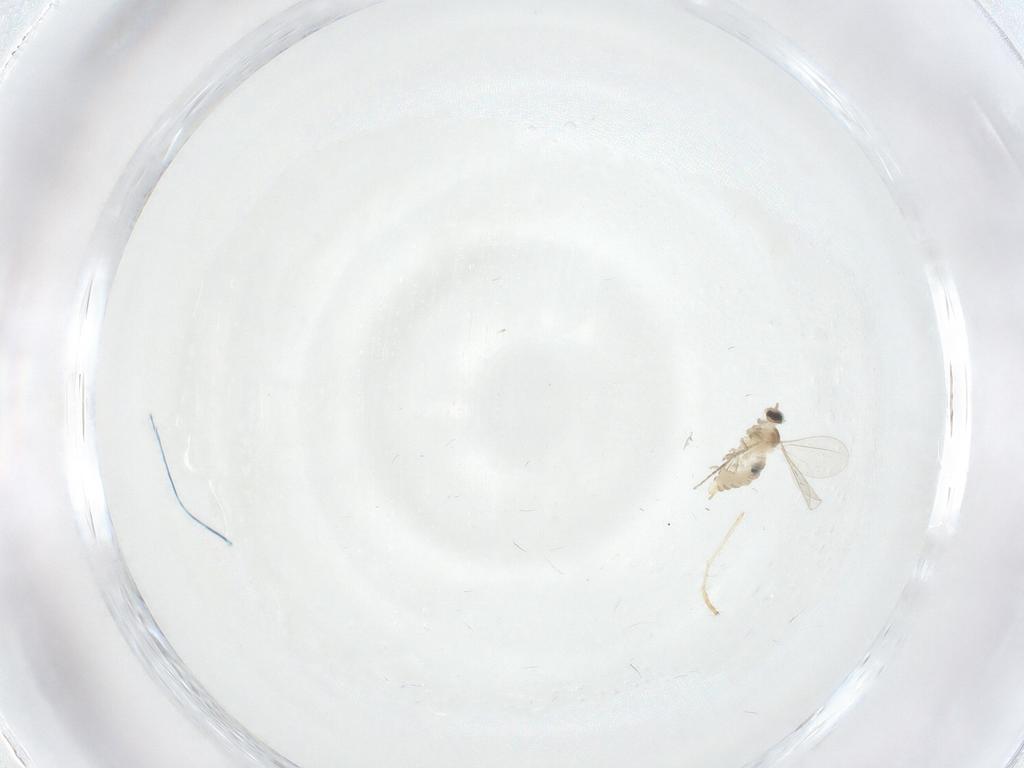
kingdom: Animalia
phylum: Arthropoda
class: Insecta
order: Diptera
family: Cecidomyiidae
